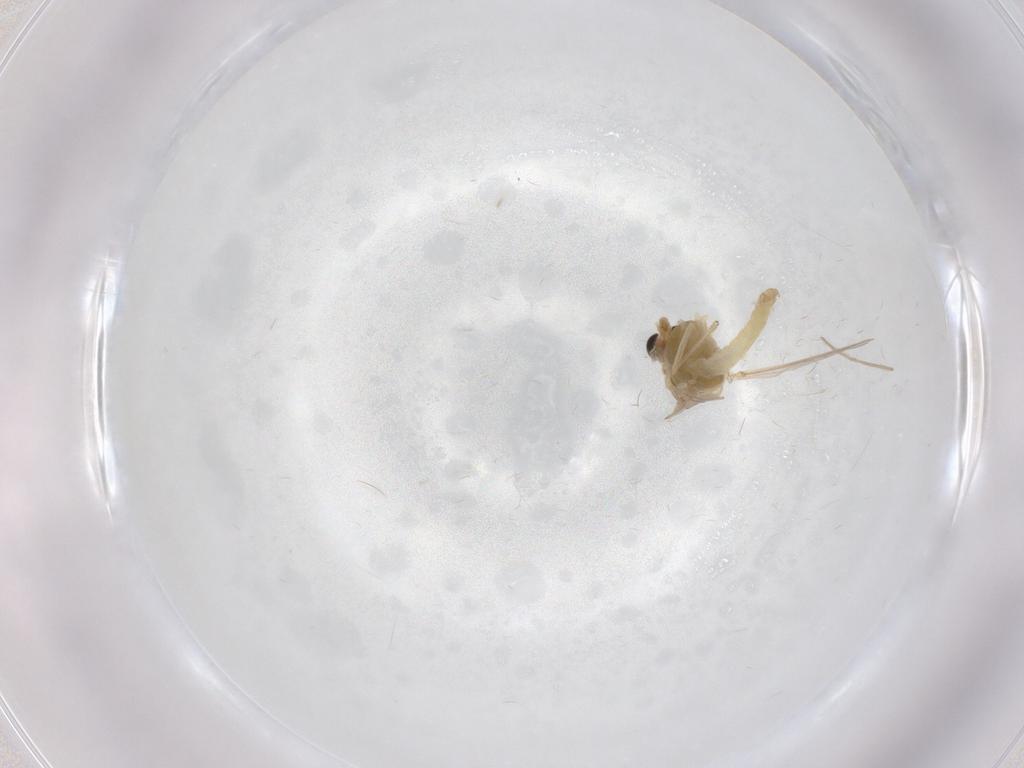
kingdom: Animalia
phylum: Arthropoda
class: Insecta
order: Diptera
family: Chironomidae
